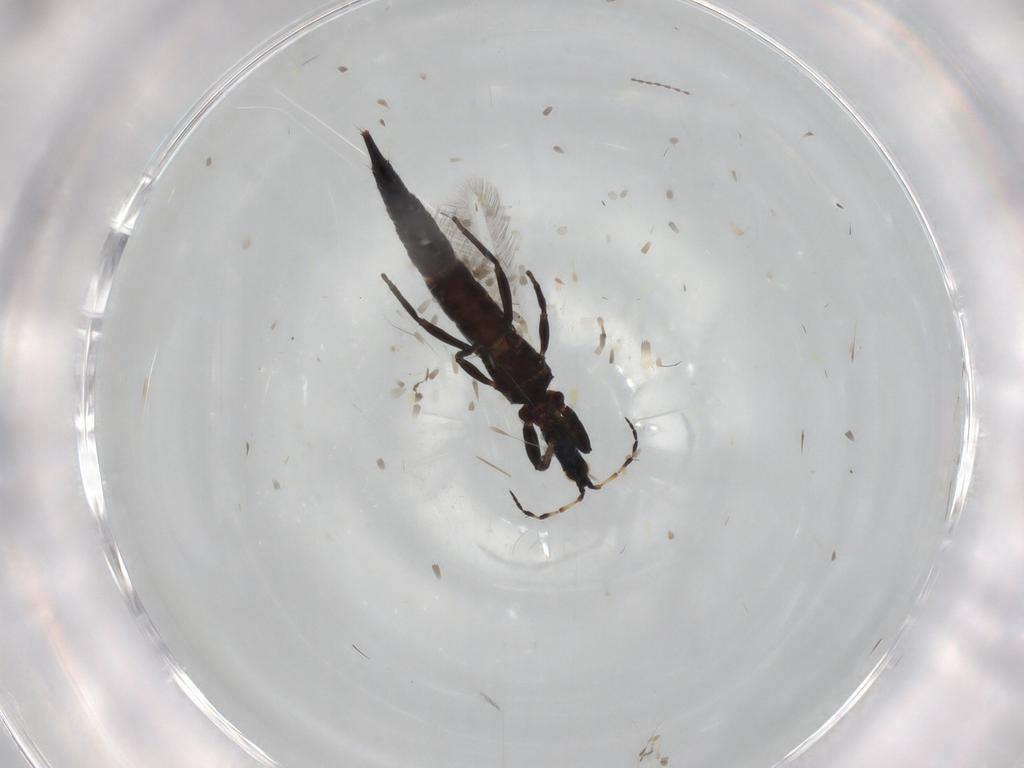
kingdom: Animalia
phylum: Arthropoda
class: Insecta
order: Thysanoptera
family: Phlaeothripidae
